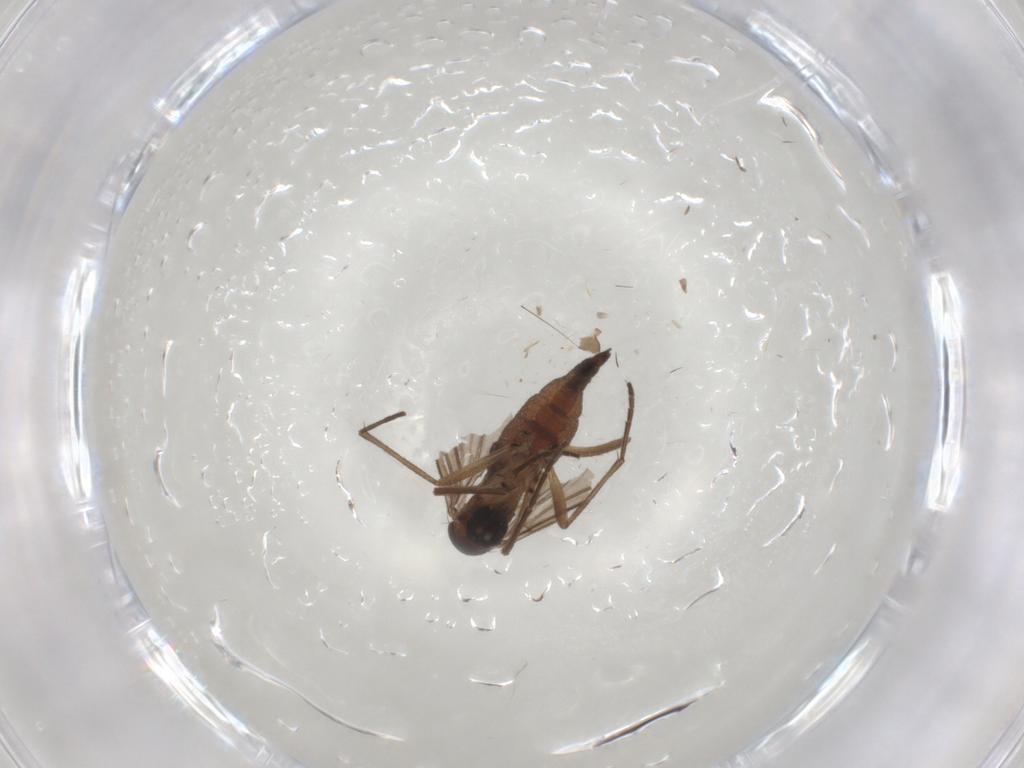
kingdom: Animalia
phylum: Arthropoda
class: Insecta
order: Diptera
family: Sciaridae
